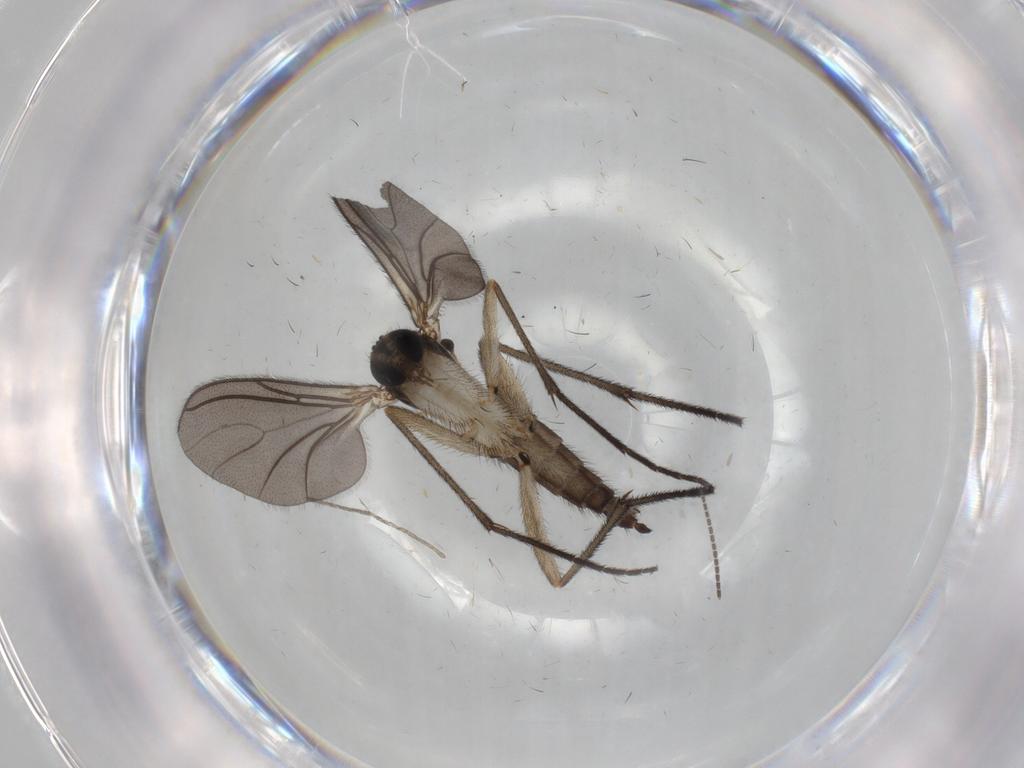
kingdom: Animalia
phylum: Arthropoda
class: Insecta
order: Diptera
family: Sciaridae
